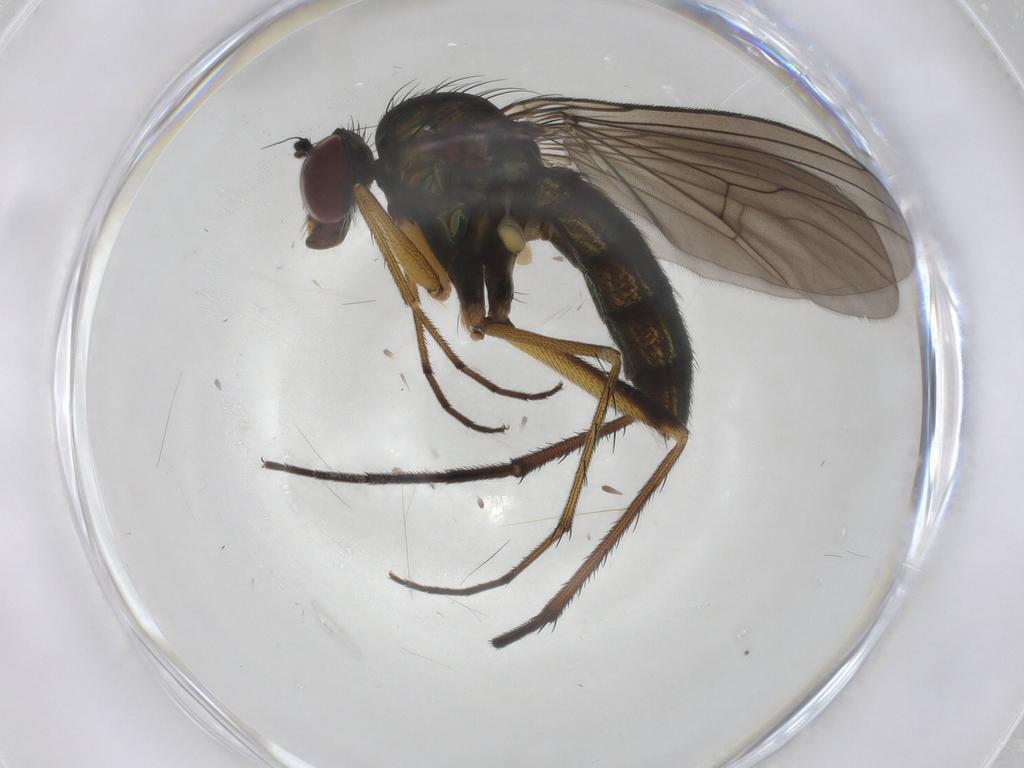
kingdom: Animalia
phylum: Arthropoda
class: Insecta
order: Diptera
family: Dolichopodidae
